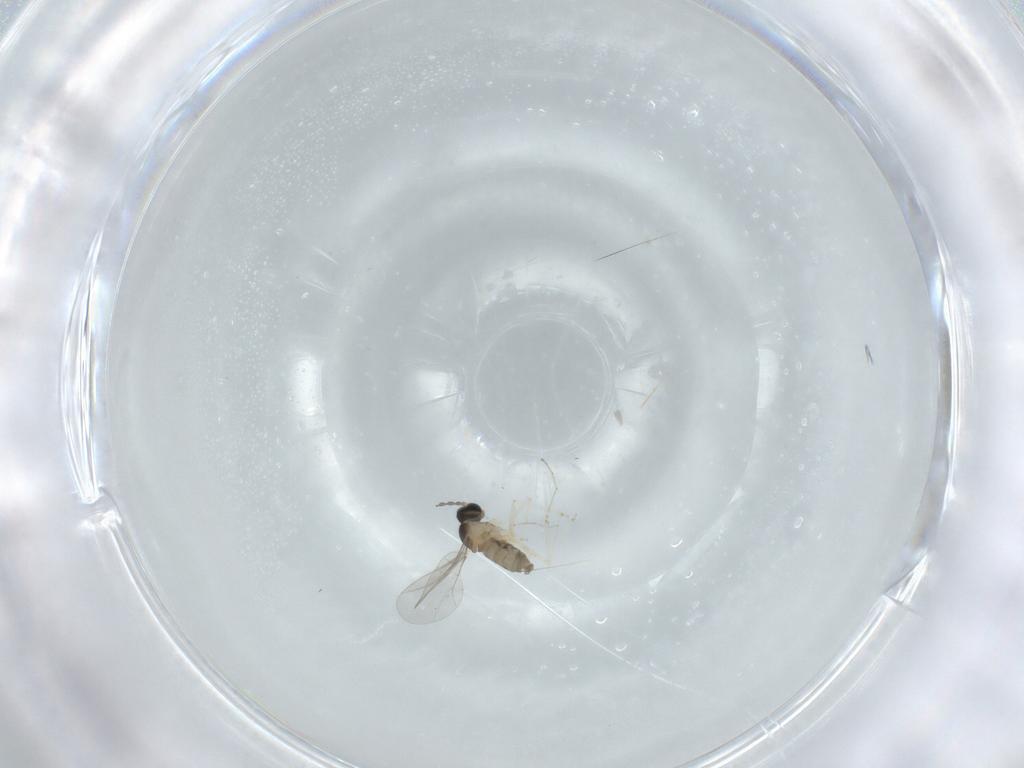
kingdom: Animalia
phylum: Arthropoda
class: Insecta
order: Diptera
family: Cecidomyiidae
